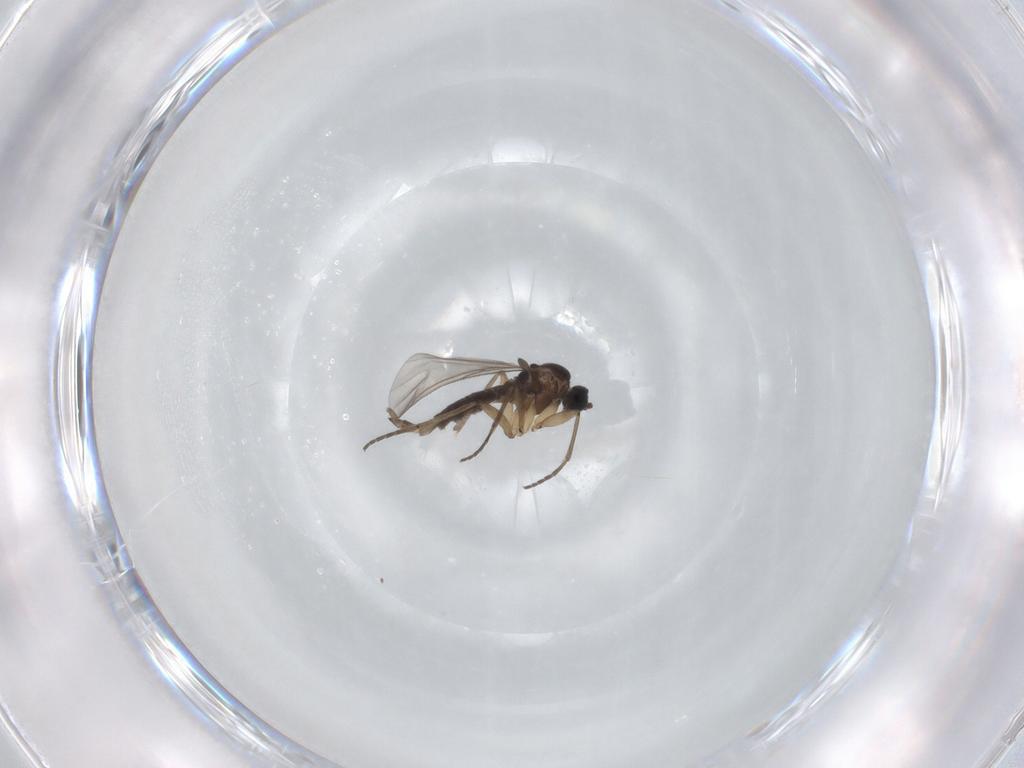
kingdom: Animalia
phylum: Arthropoda
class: Insecta
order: Diptera
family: Sciaridae
